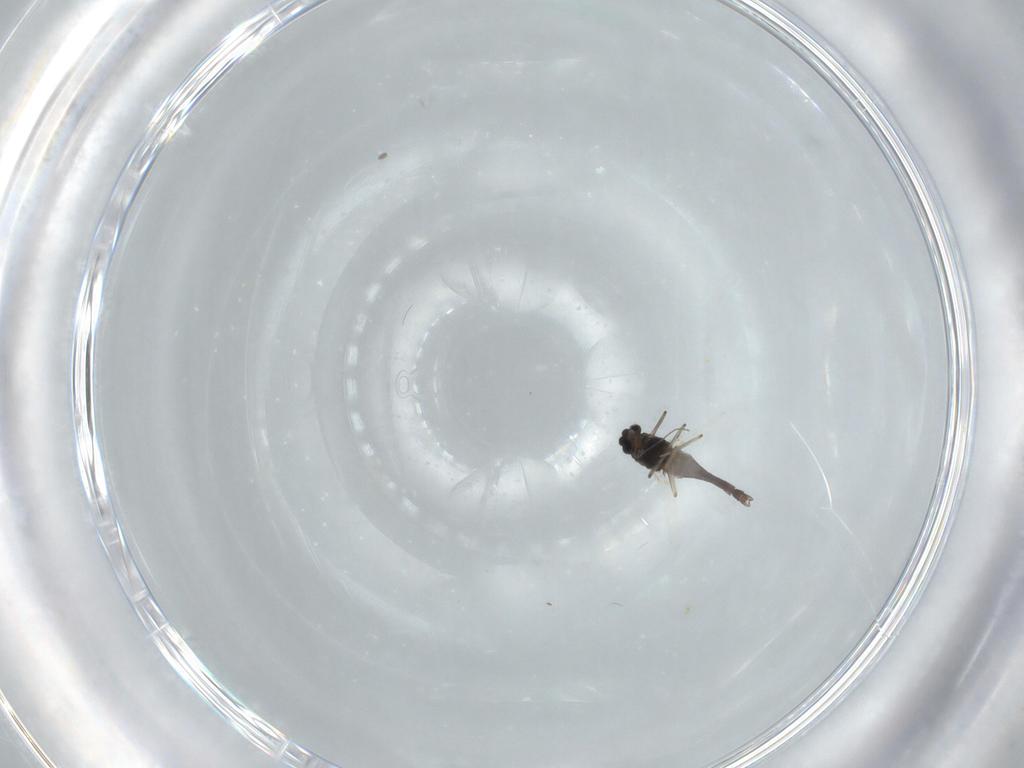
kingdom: Animalia
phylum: Arthropoda
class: Insecta
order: Diptera
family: Chironomidae
